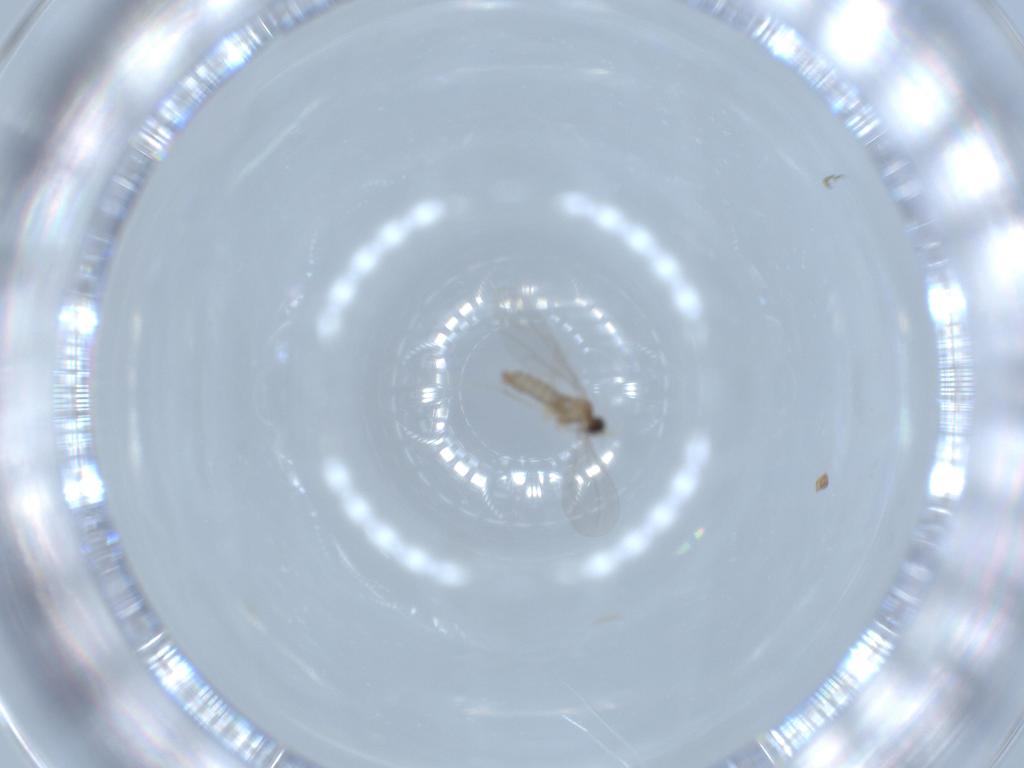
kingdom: Animalia
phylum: Arthropoda
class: Insecta
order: Diptera
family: Cecidomyiidae
